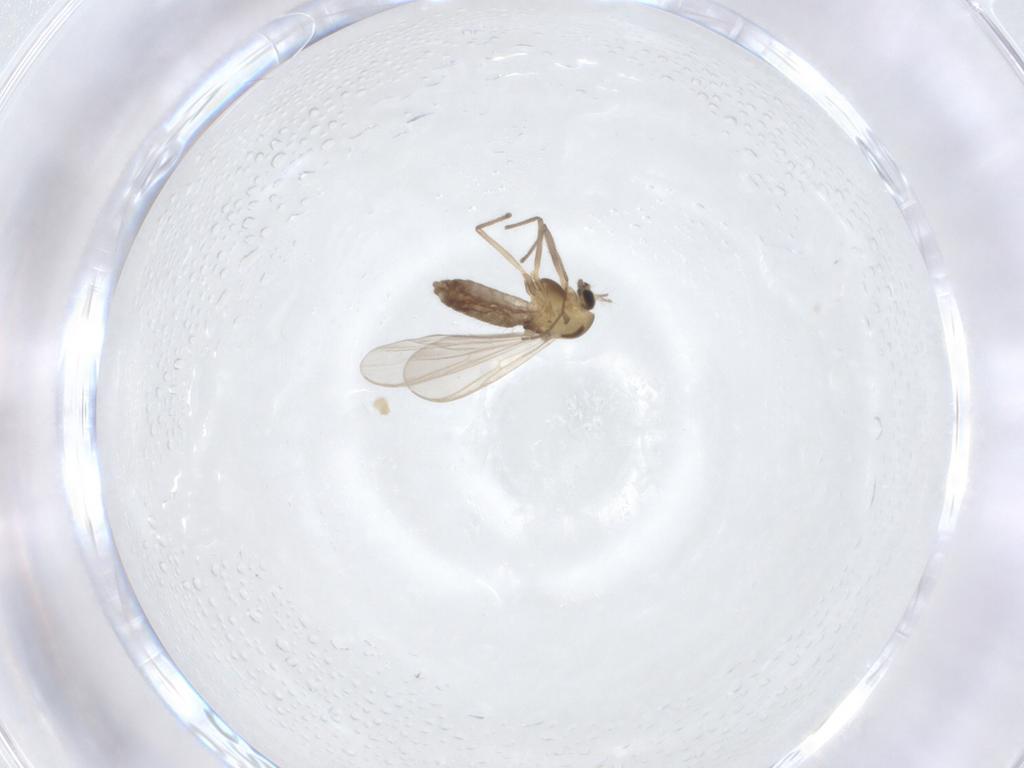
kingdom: Animalia
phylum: Arthropoda
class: Insecta
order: Diptera
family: Chironomidae
